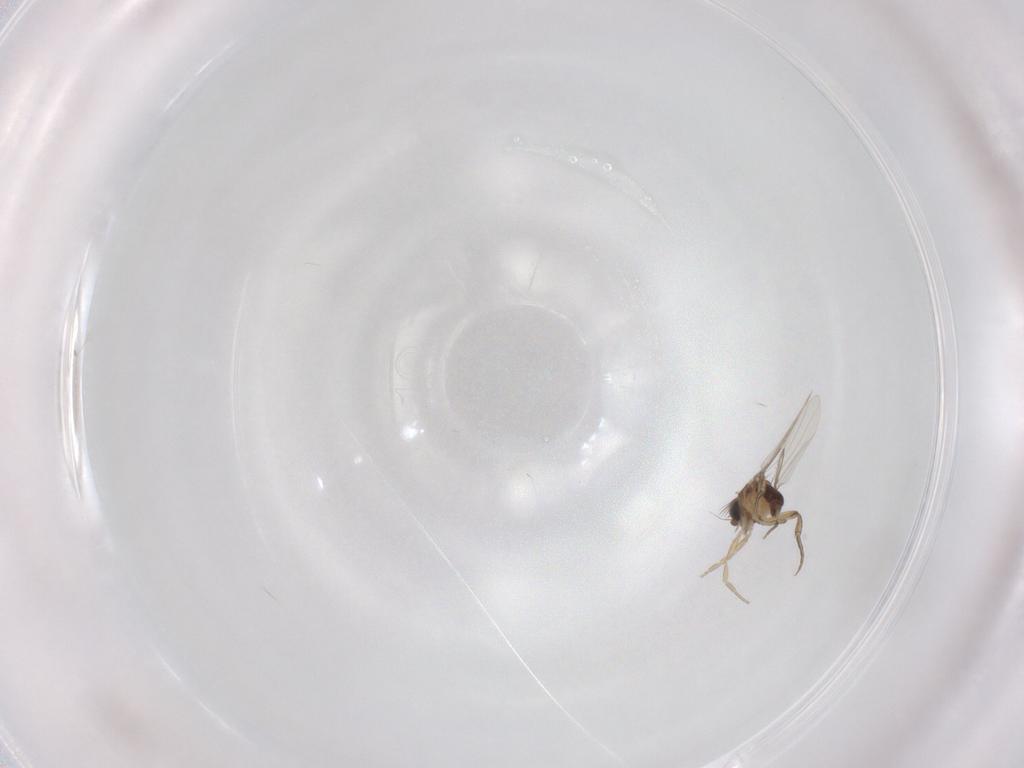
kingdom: Animalia
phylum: Arthropoda
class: Insecta
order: Diptera
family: Phoridae
